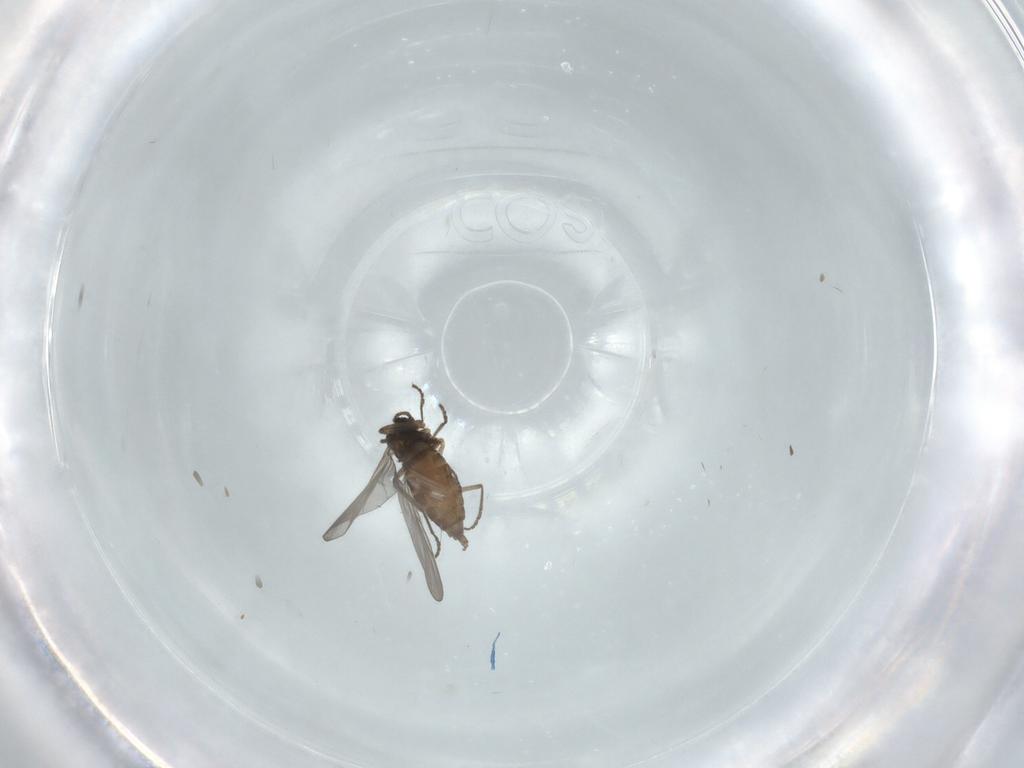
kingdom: Animalia
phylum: Arthropoda
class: Insecta
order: Diptera
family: Cecidomyiidae
